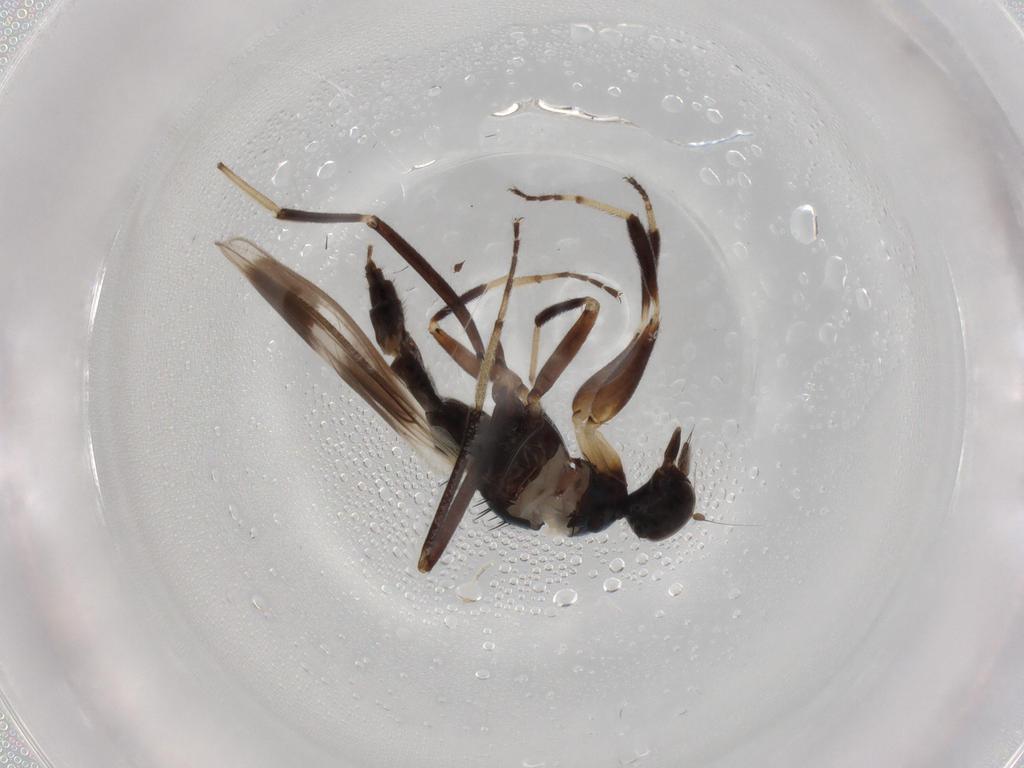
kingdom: Animalia
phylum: Arthropoda
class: Insecta
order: Diptera
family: Hybotidae
